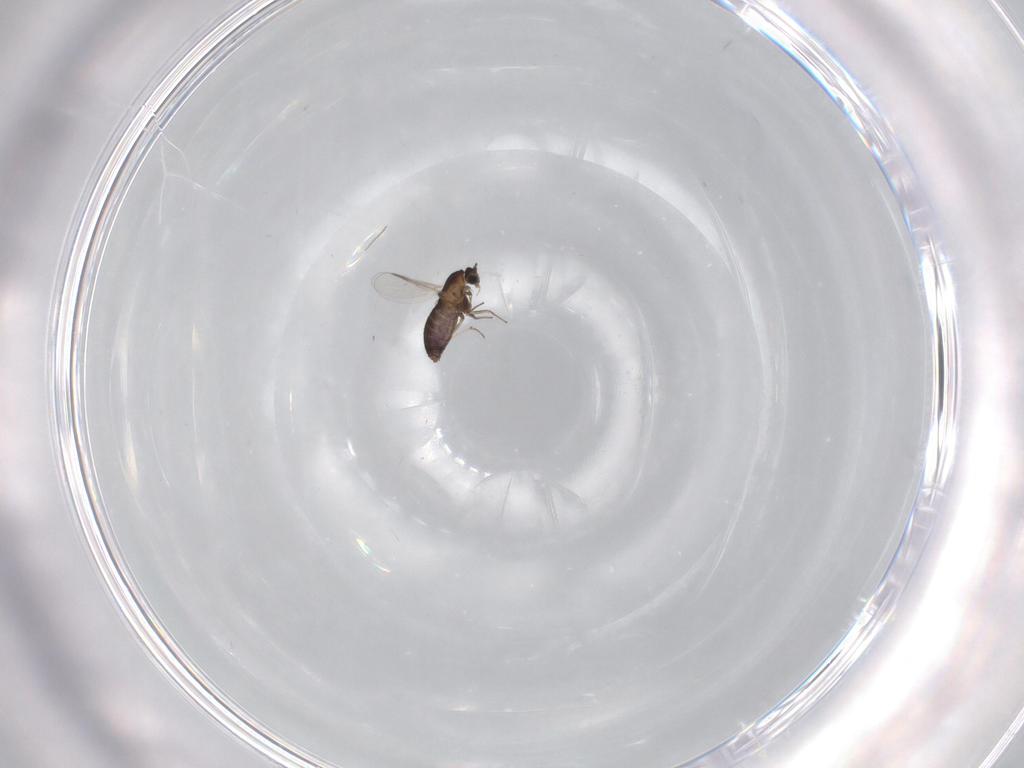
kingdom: Animalia
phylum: Arthropoda
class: Insecta
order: Diptera
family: Chironomidae
